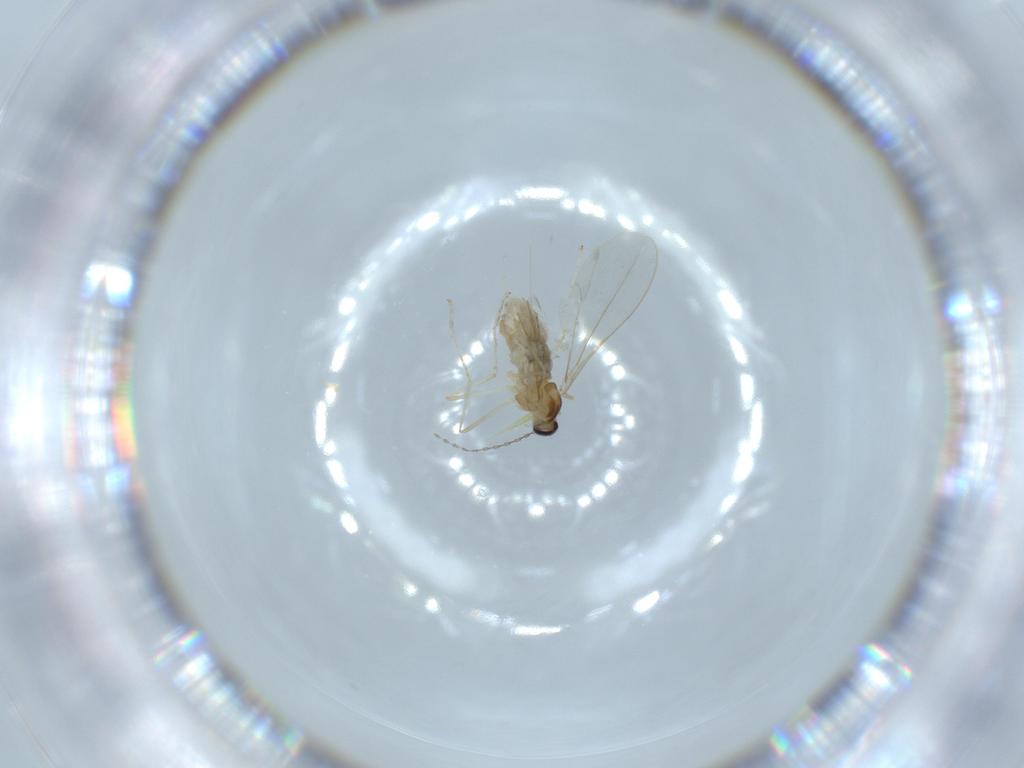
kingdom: Animalia
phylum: Arthropoda
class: Insecta
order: Diptera
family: Cecidomyiidae
